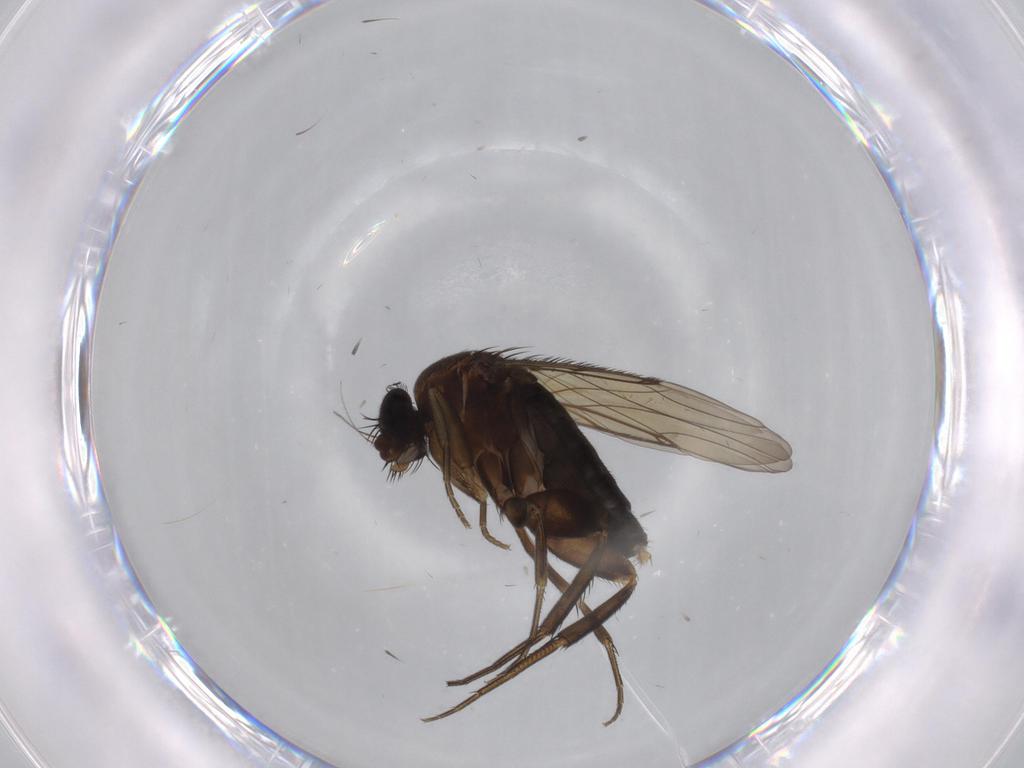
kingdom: Animalia
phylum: Arthropoda
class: Insecta
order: Diptera
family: Phoridae
